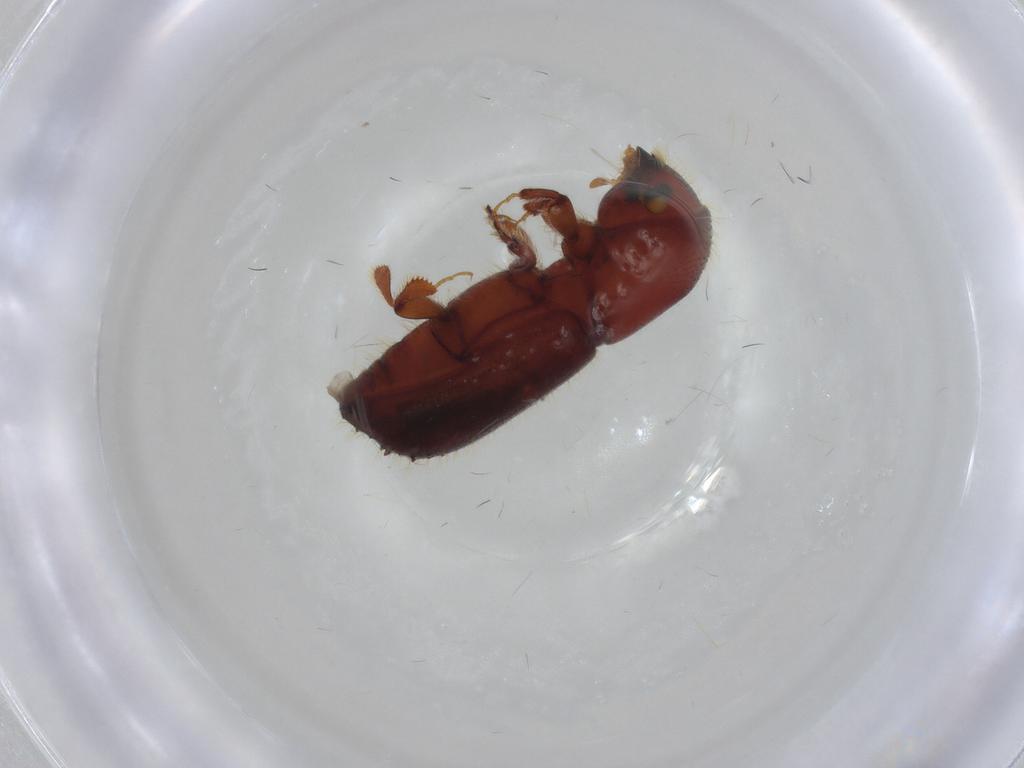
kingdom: Animalia
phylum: Arthropoda
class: Insecta
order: Coleoptera
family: Curculionidae
